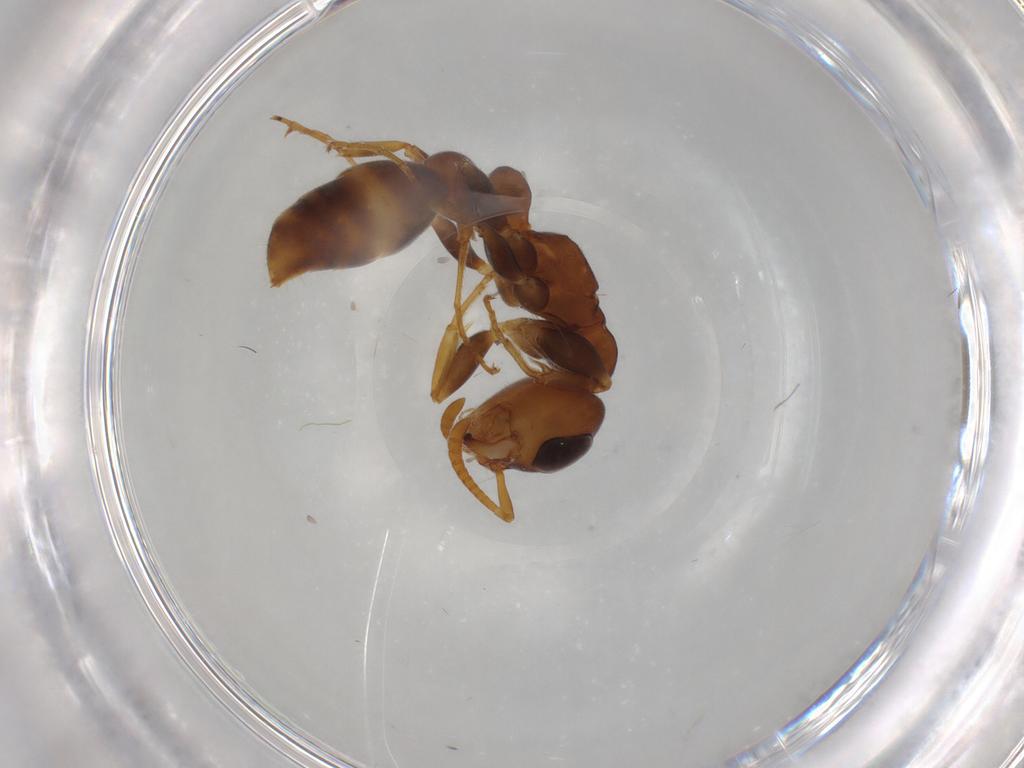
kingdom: Animalia
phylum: Arthropoda
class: Insecta
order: Hymenoptera
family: Formicidae
